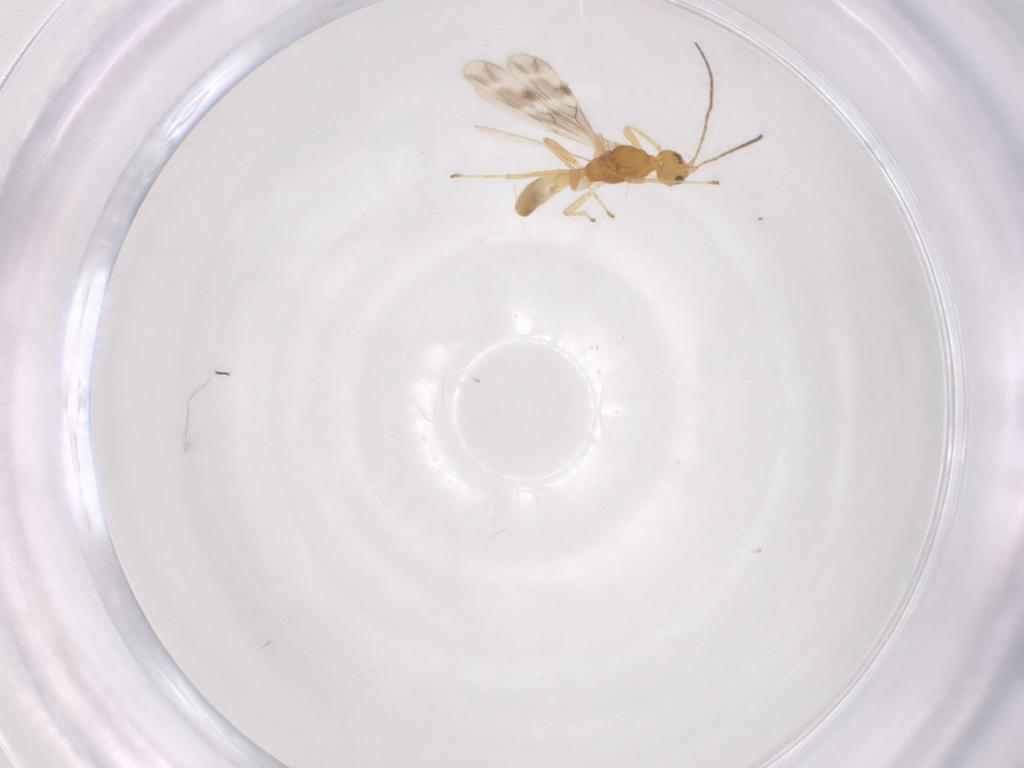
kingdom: Animalia
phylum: Arthropoda
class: Insecta
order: Hymenoptera
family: Braconidae
